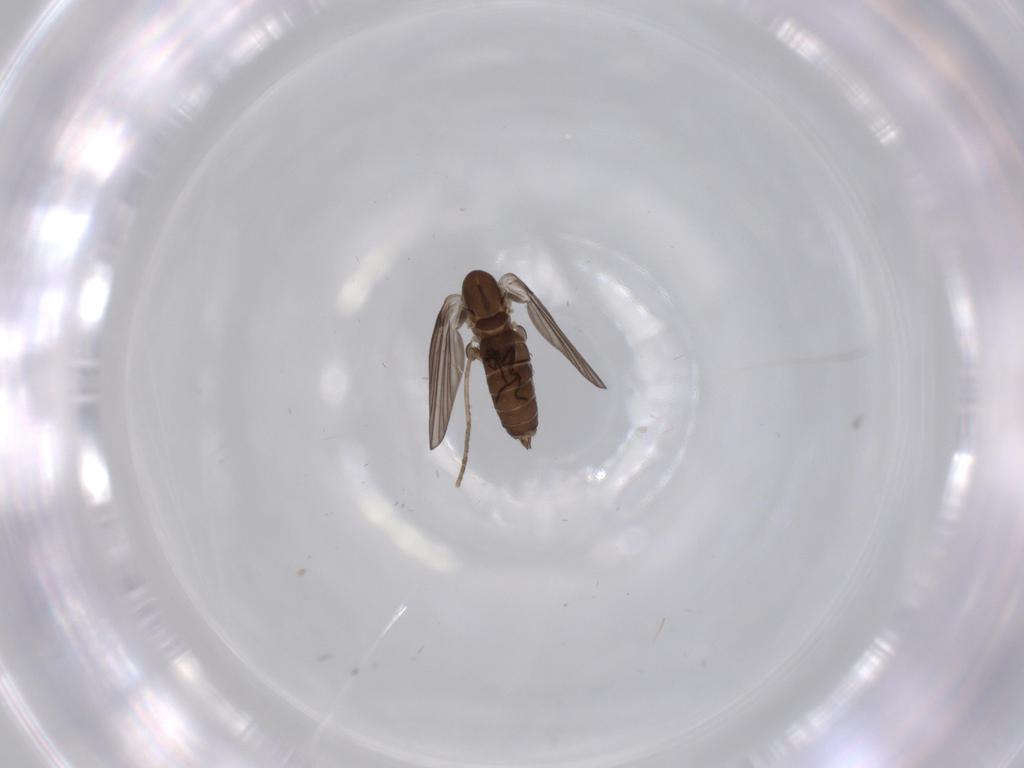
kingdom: Animalia
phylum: Arthropoda
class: Insecta
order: Diptera
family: Psychodidae
